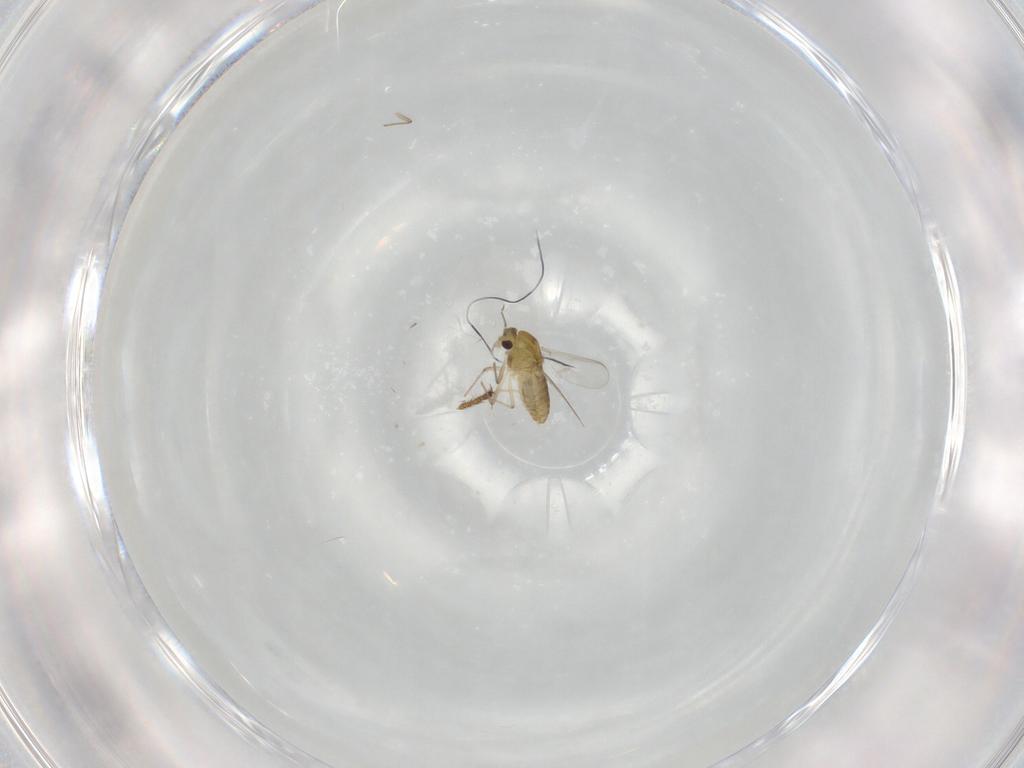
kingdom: Animalia
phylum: Arthropoda
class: Insecta
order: Diptera
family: Chironomidae
